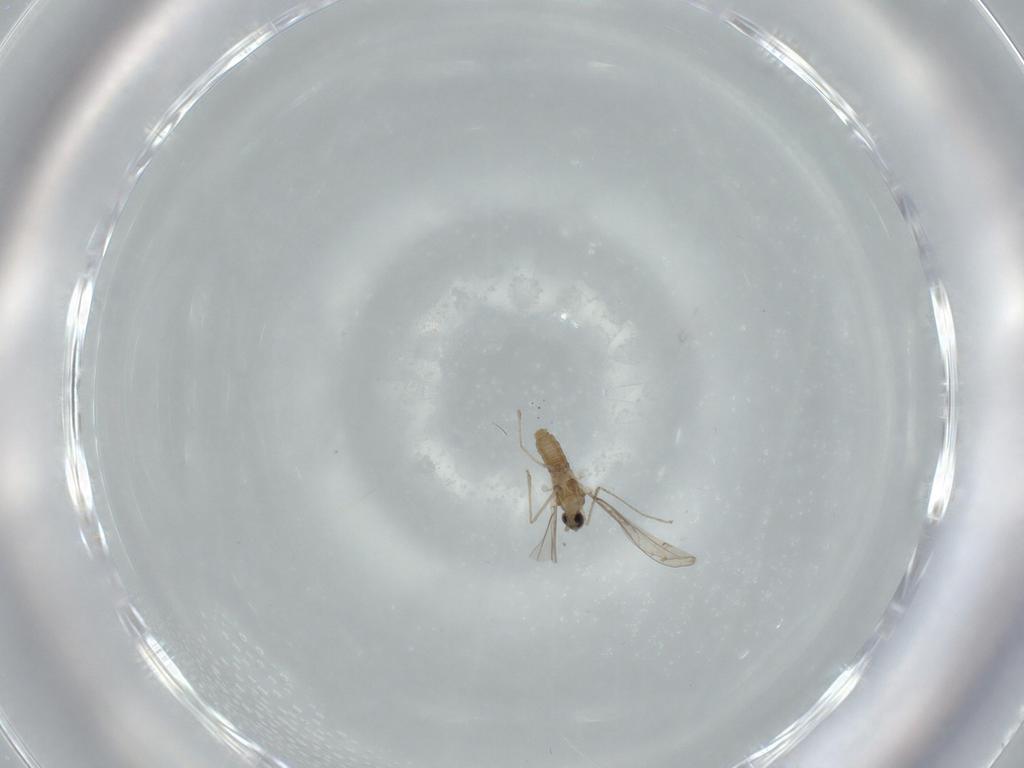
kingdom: Animalia
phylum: Arthropoda
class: Insecta
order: Diptera
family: Cecidomyiidae
